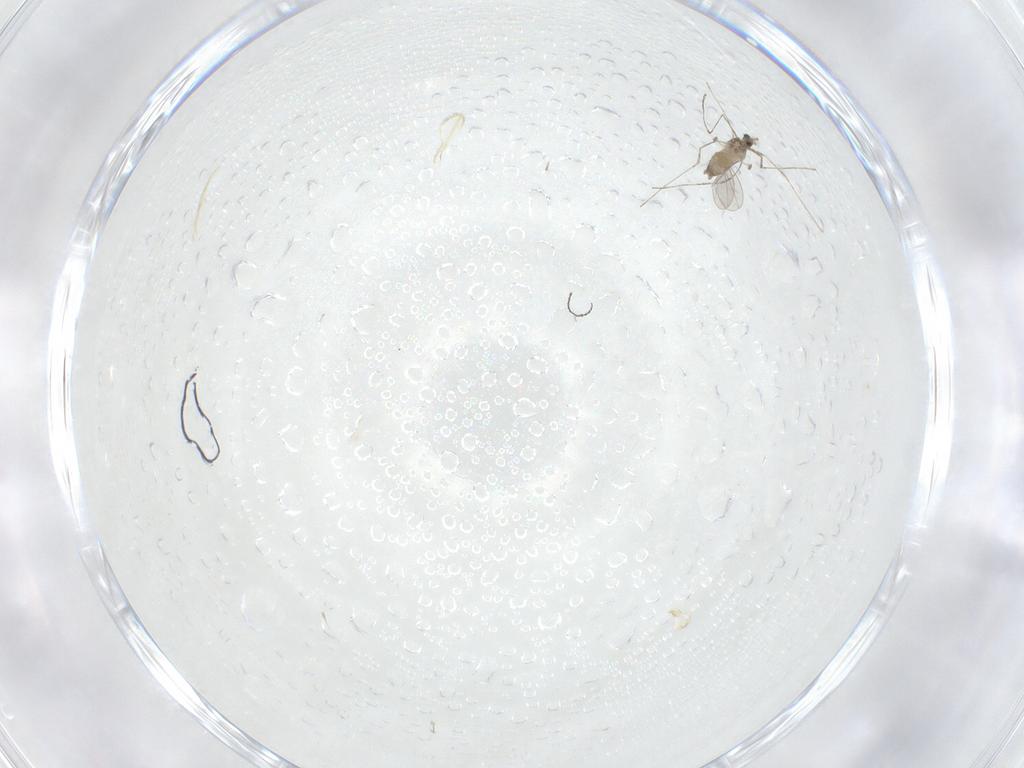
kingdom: Animalia
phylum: Arthropoda
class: Insecta
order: Diptera
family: Cecidomyiidae
